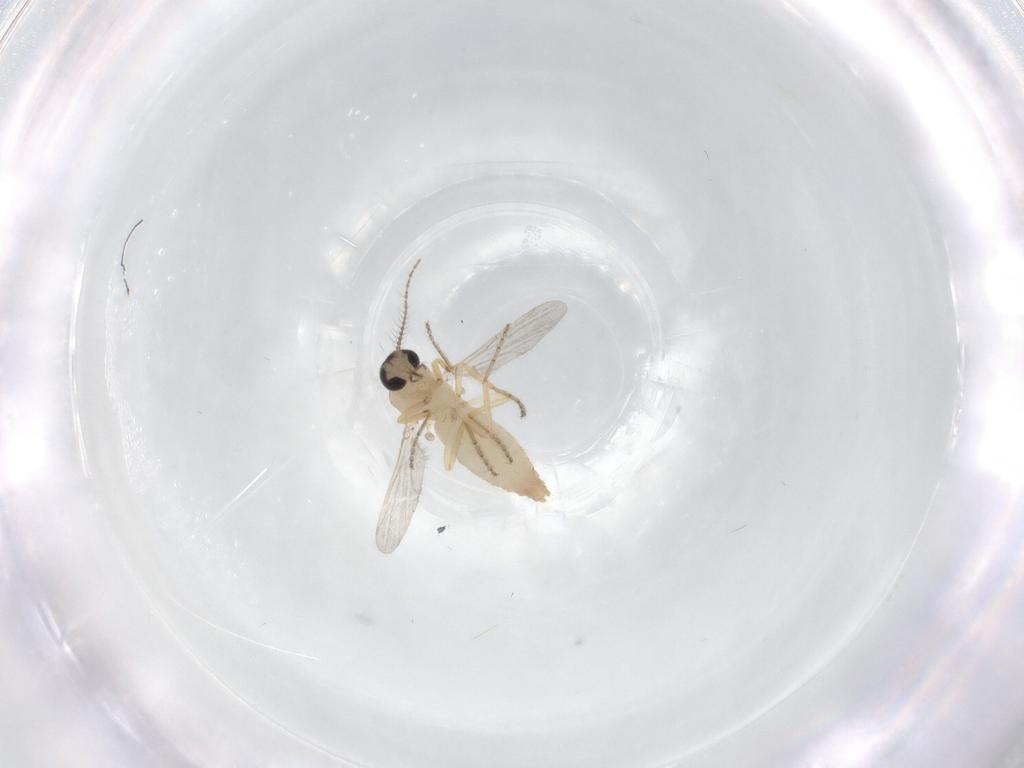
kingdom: Animalia
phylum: Arthropoda
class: Insecta
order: Diptera
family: Ceratopogonidae
